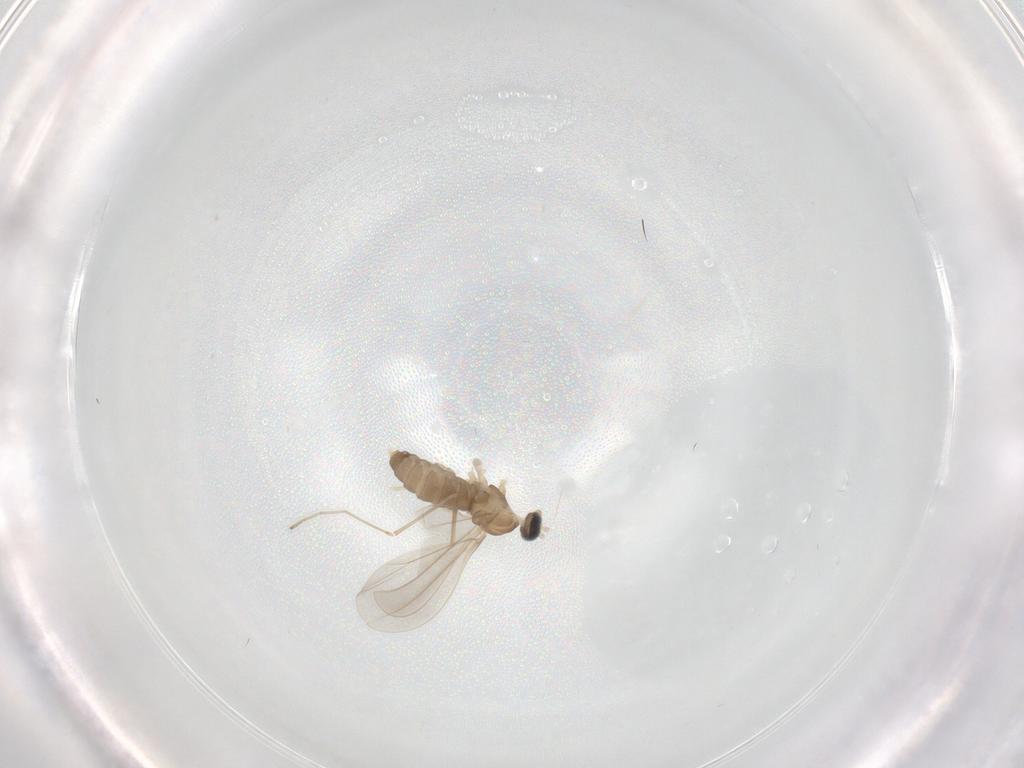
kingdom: Animalia
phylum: Arthropoda
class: Insecta
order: Diptera
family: Cecidomyiidae
